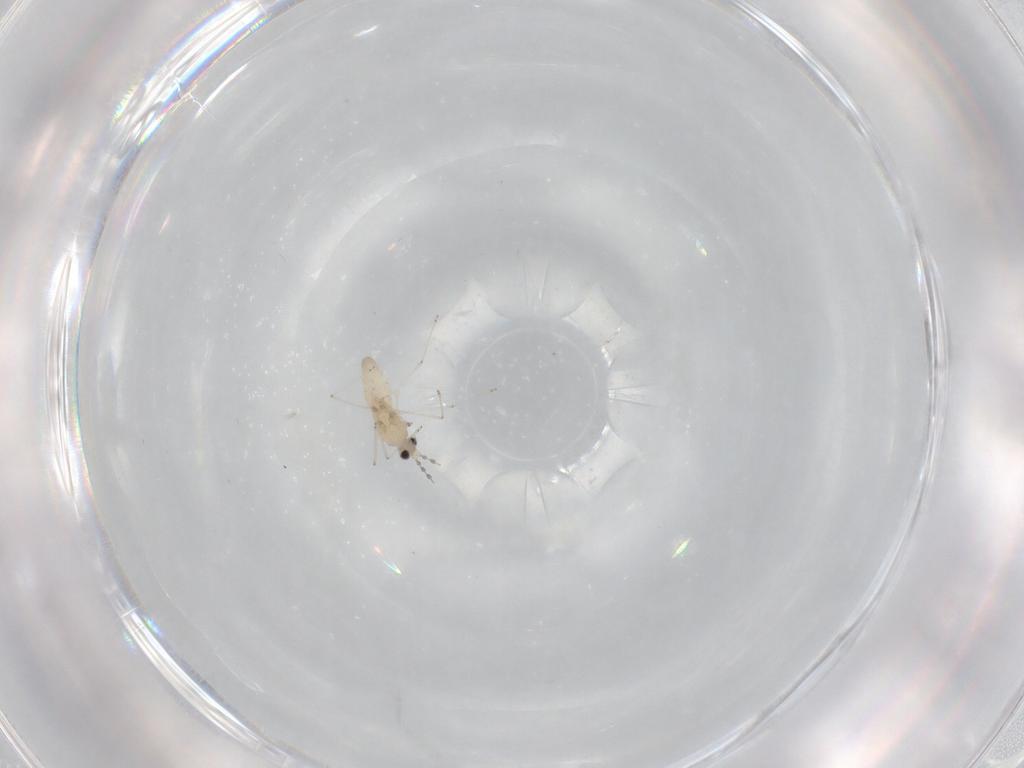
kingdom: Animalia
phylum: Arthropoda
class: Insecta
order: Diptera
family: Cecidomyiidae
